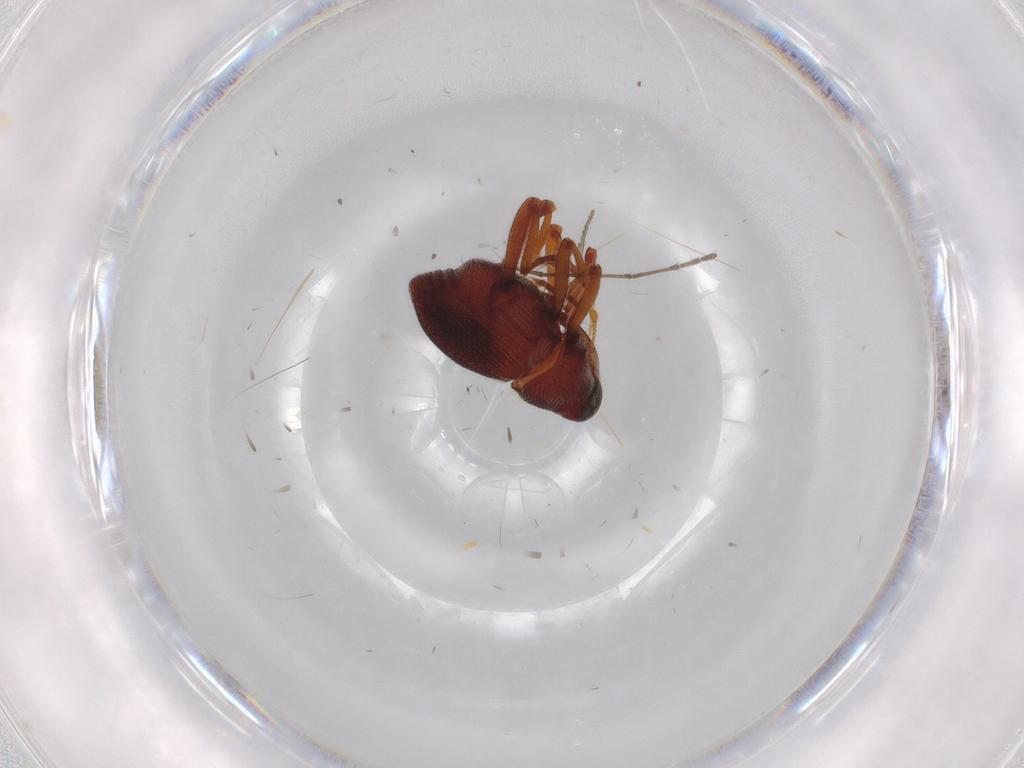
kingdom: Animalia
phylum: Arthropoda
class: Insecta
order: Coleoptera
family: Curculionidae
